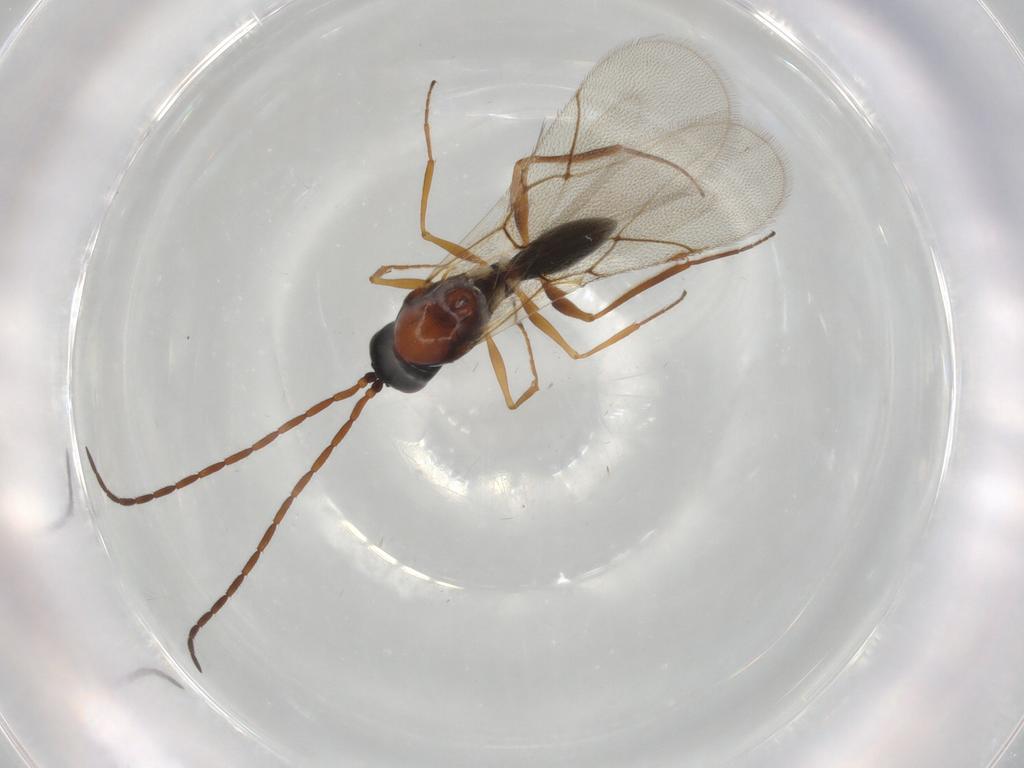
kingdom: Animalia
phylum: Arthropoda
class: Insecta
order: Hymenoptera
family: Figitidae
